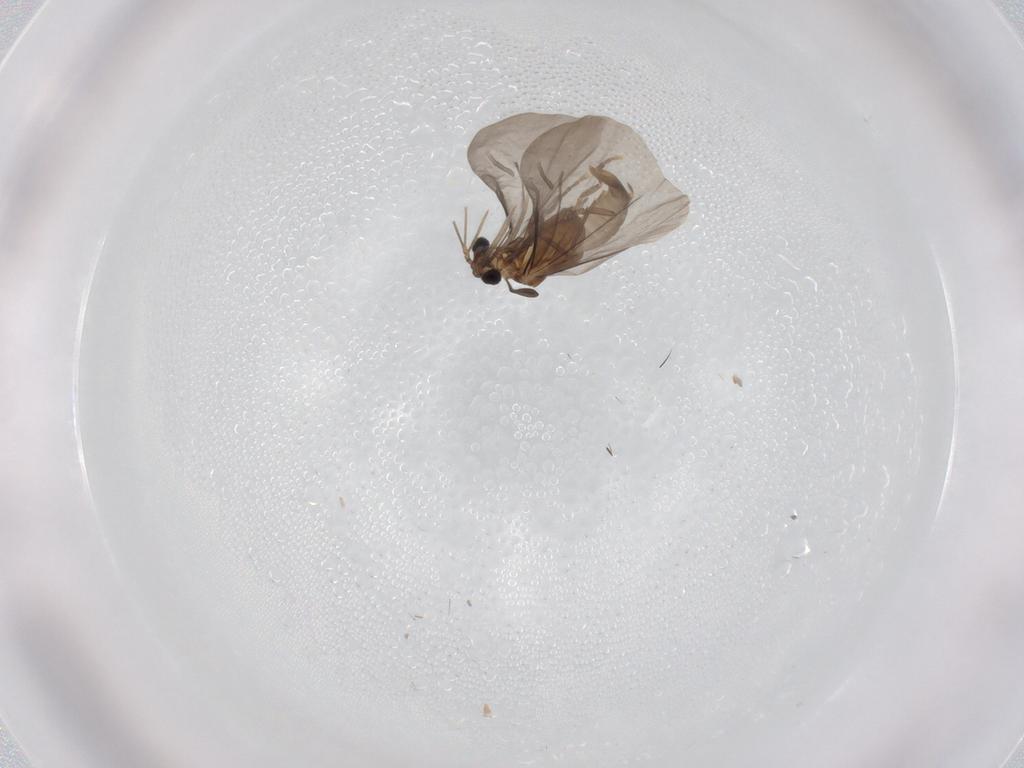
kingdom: Animalia
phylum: Arthropoda
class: Insecta
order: Strepsiptera
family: Corioxenidae
